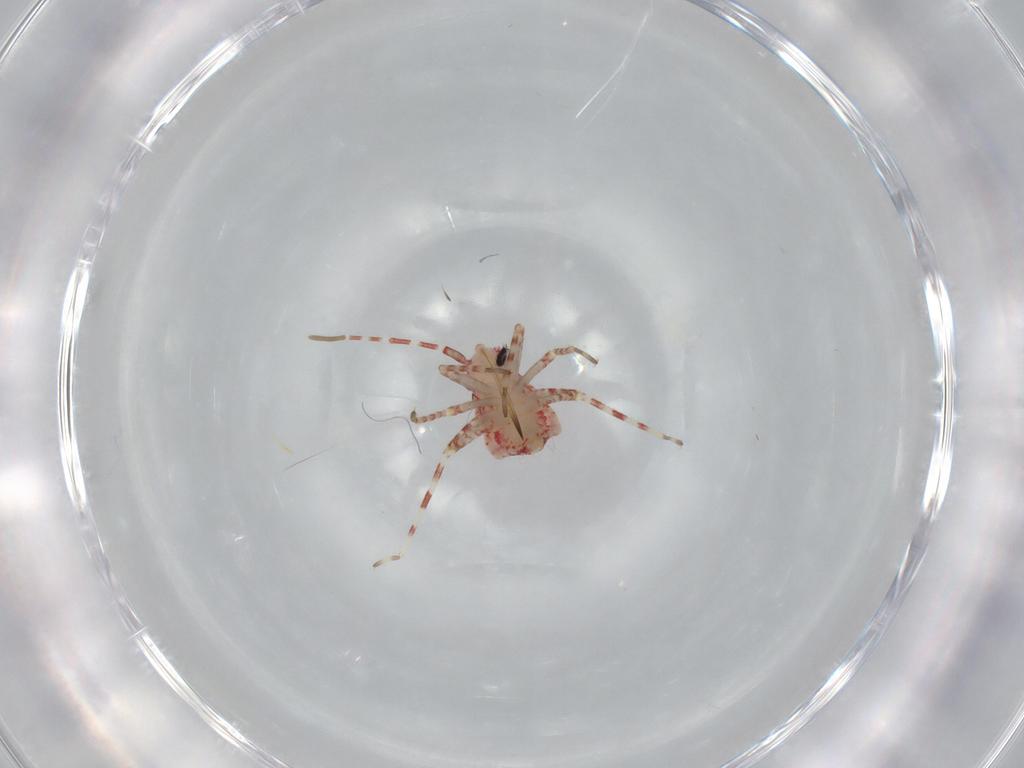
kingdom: Animalia
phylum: Arthropoda
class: Insecta
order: Hemiptera
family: Miridae
